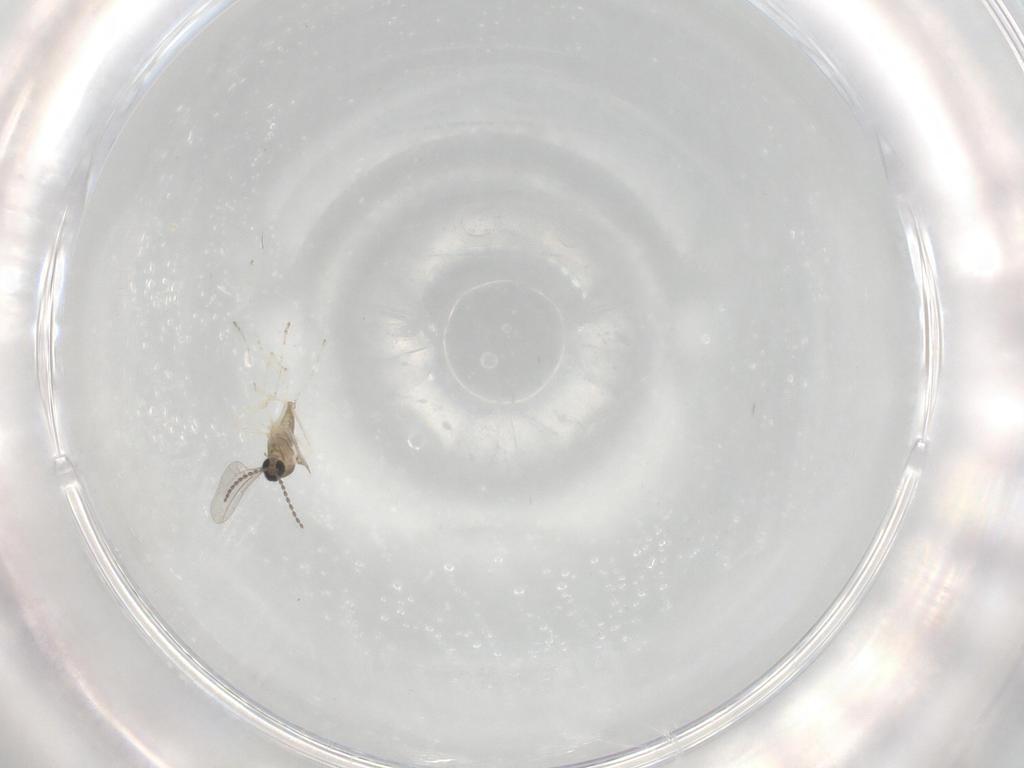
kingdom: Animalia
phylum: Arthropoda
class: Insecta
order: Diptera
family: Cecidomyiidae
